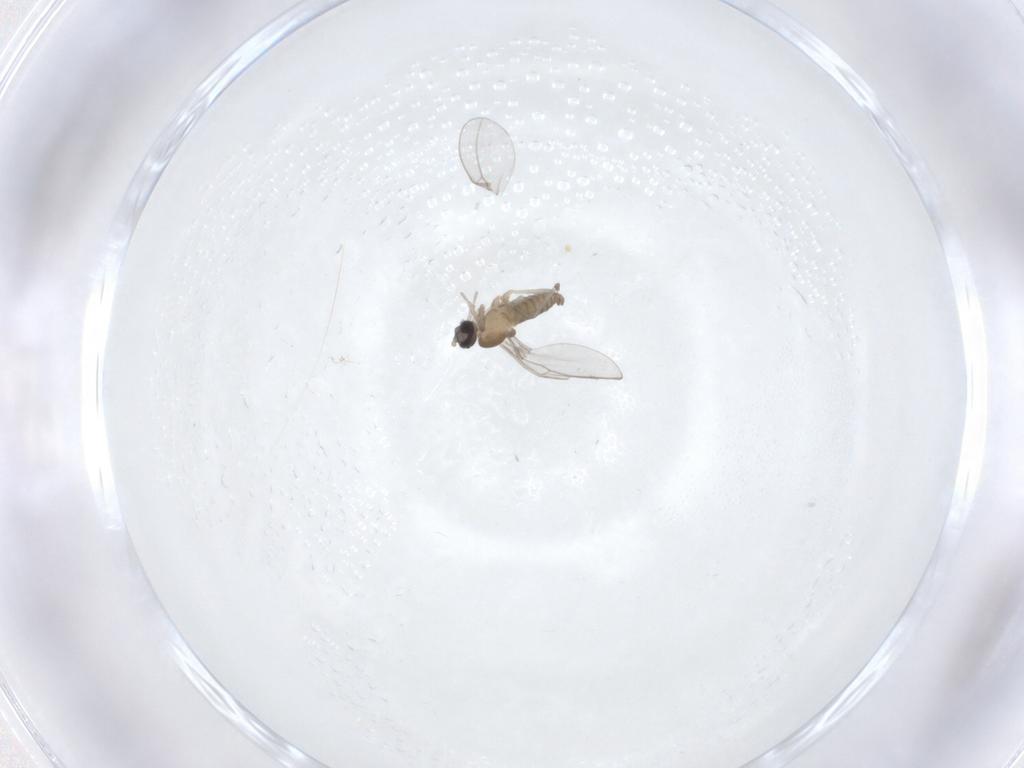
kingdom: Animalia
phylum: Arthropoda
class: Insecta
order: Diptera
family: Cecidomyiidae
